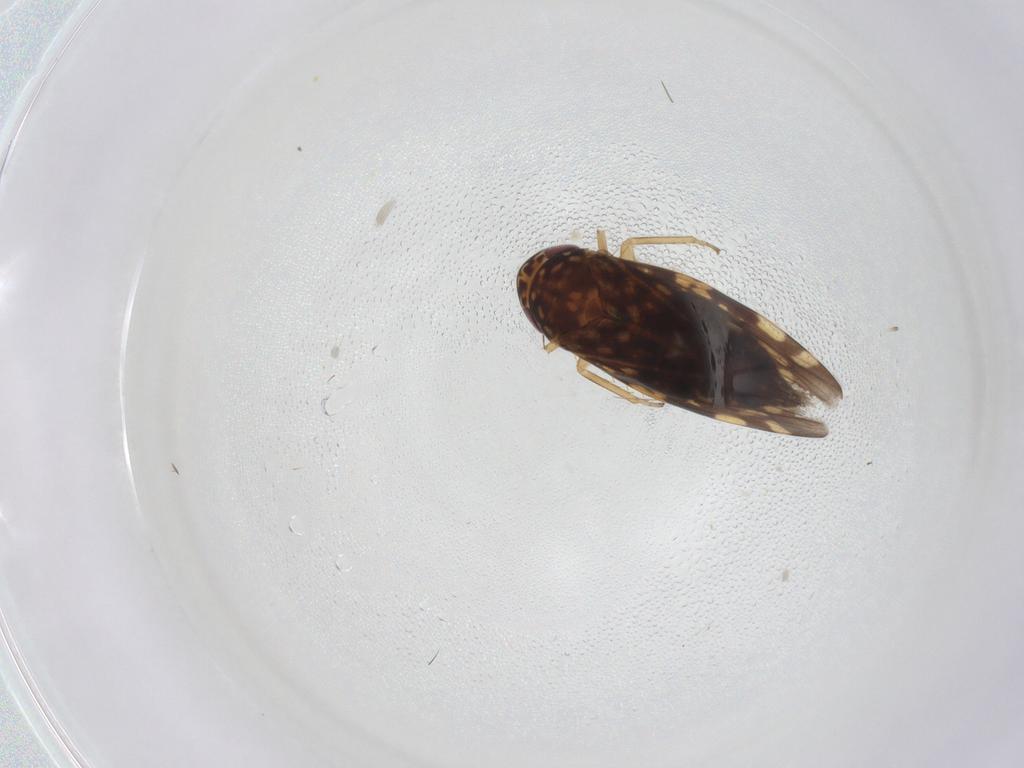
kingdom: Animalia
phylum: Arthropoda
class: Insecta
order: Hemiptera
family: Cicadellidae
